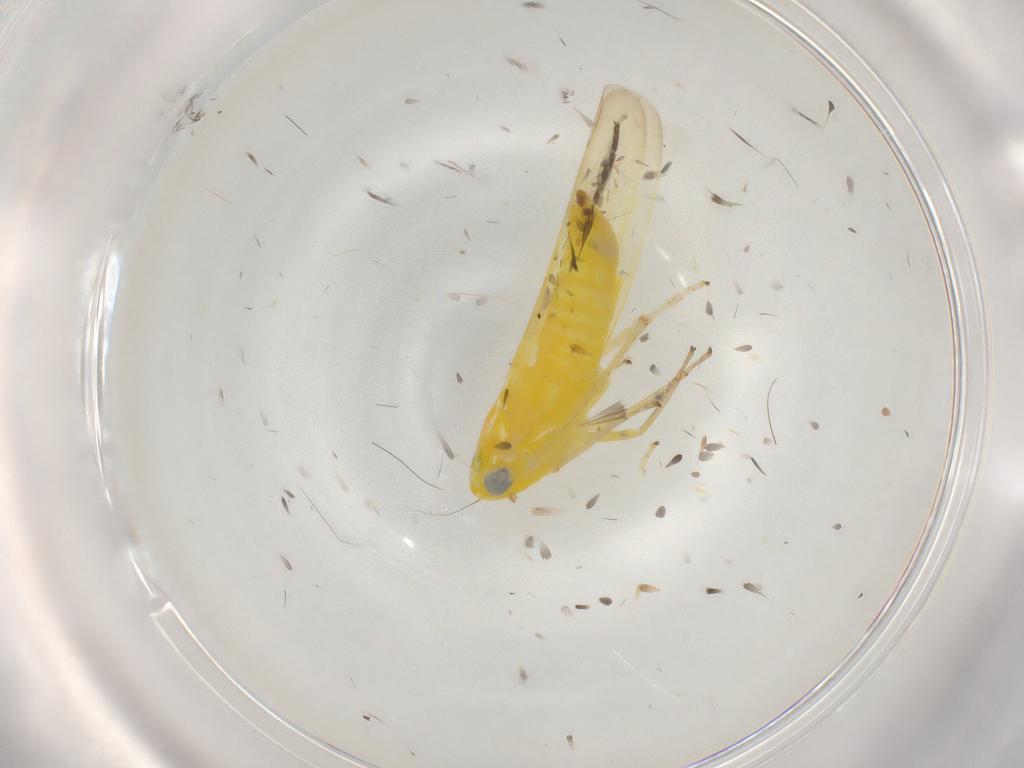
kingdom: Animalia
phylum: Arthropoda
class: Insecta
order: Hemiptera
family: Cicadellidae
